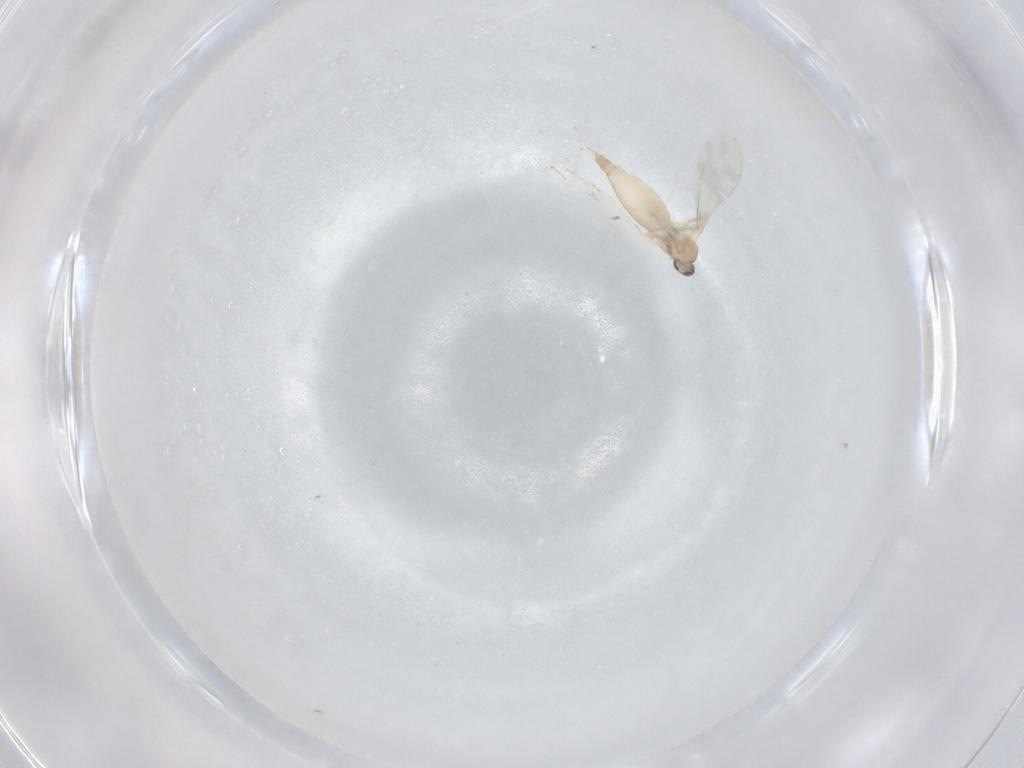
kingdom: Animalia
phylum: Arthropoda
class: Insecta
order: Diptera
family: Cecidomyiidae
